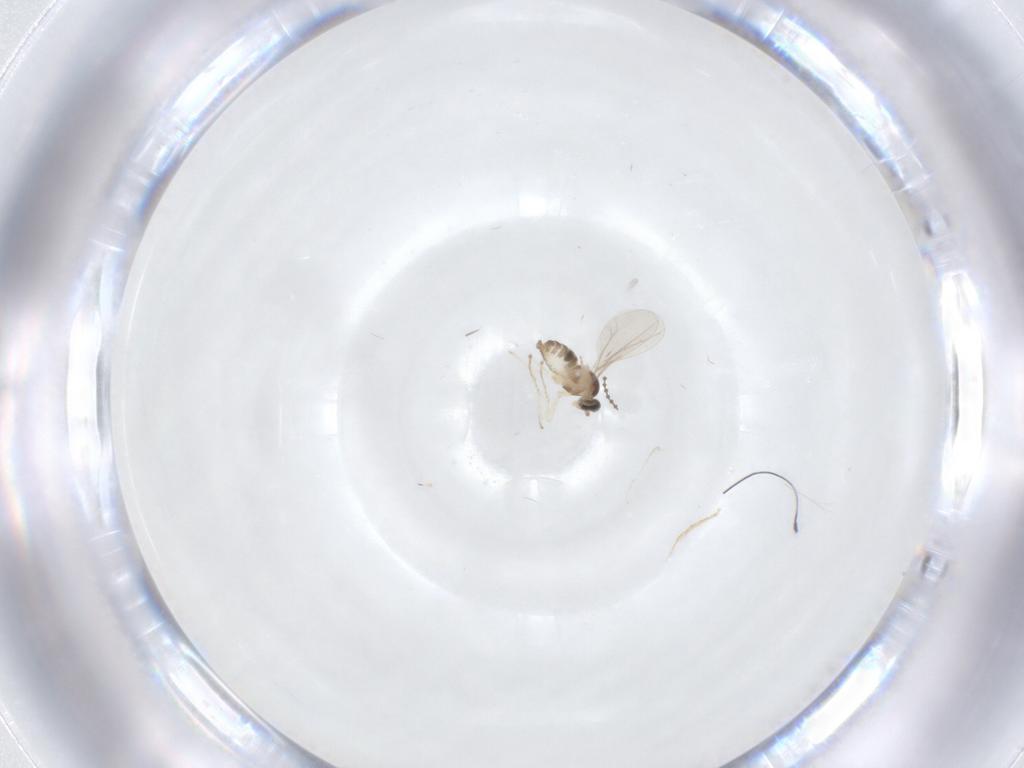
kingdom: Animalia
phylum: Arthropoda
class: Insecta
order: Diptera
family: Cecidomyiidae
